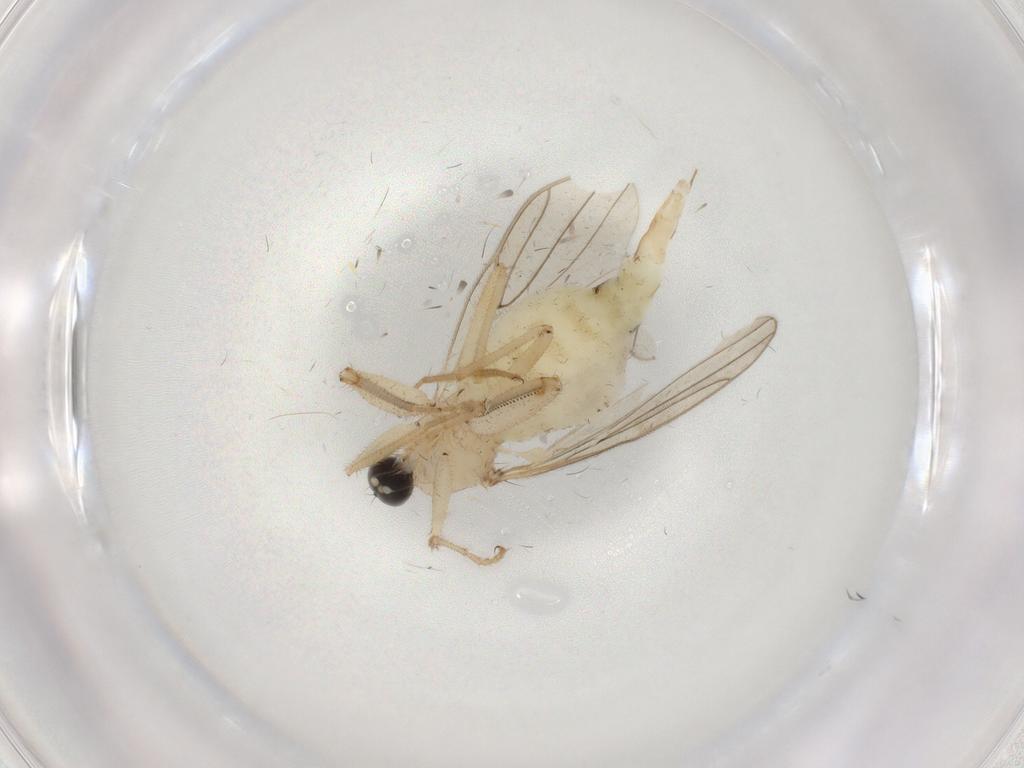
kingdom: Animalia
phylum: Arthropoda
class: Insecta
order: Diptera
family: Hybotidae
